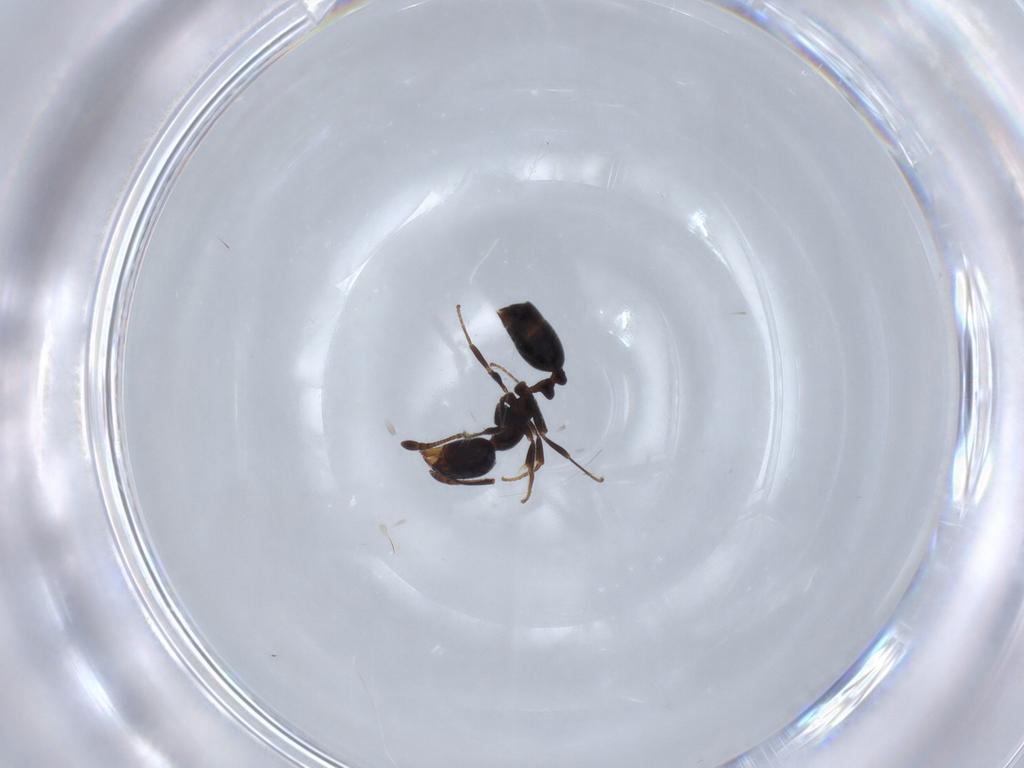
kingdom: Animalia
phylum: Arthropoda
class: Insecta
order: Hymenoptera
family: Formicidae
